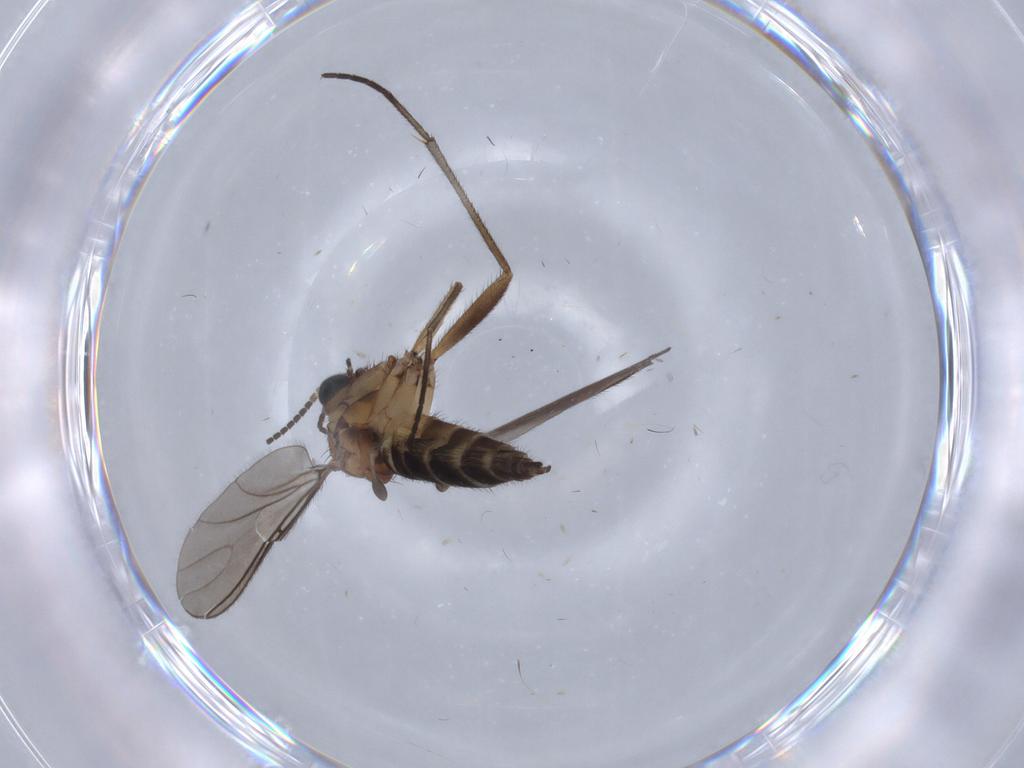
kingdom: Animalia
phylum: Arthropoda
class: Insecta
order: Diptera
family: Sciaridae
